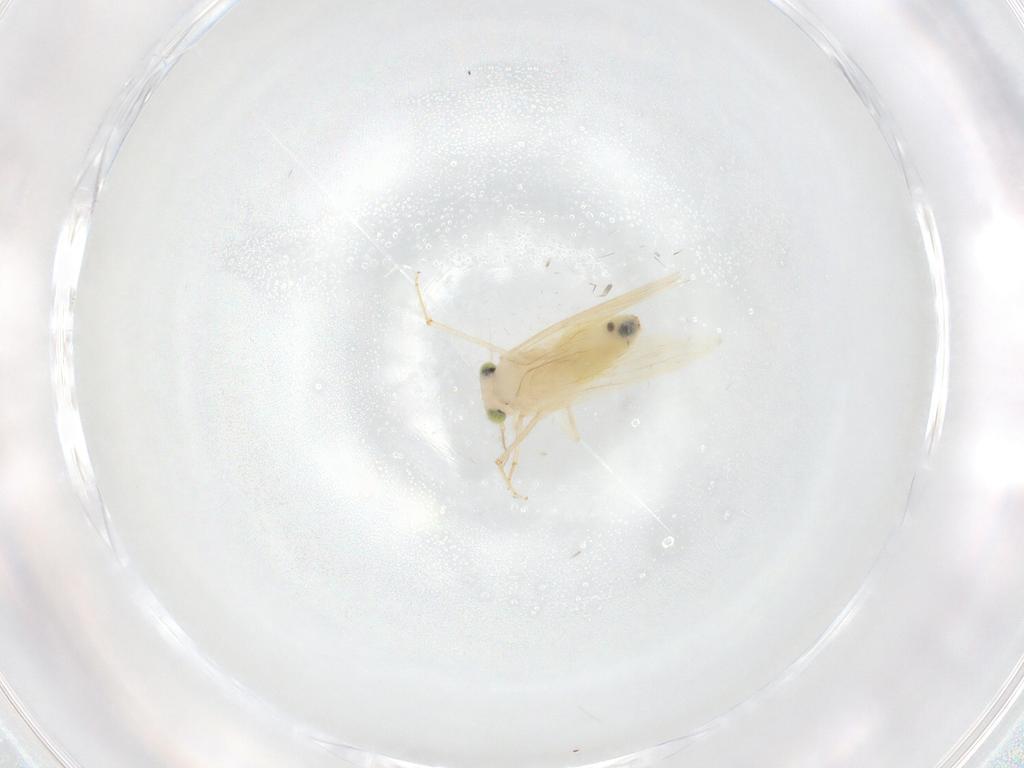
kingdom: Animalia
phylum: Arthropoda
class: Insecta
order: Psocodea
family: Lepidopsocidae
